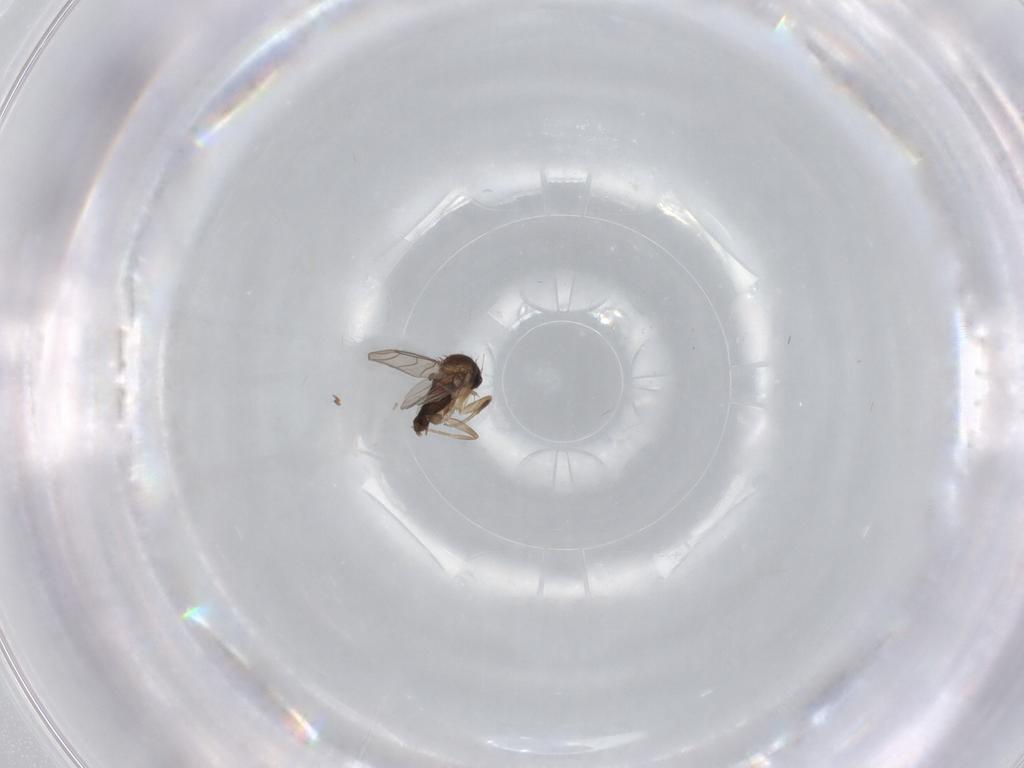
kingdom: Animalia
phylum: Arthropoda
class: Insecta
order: Diptera
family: Phoridae
